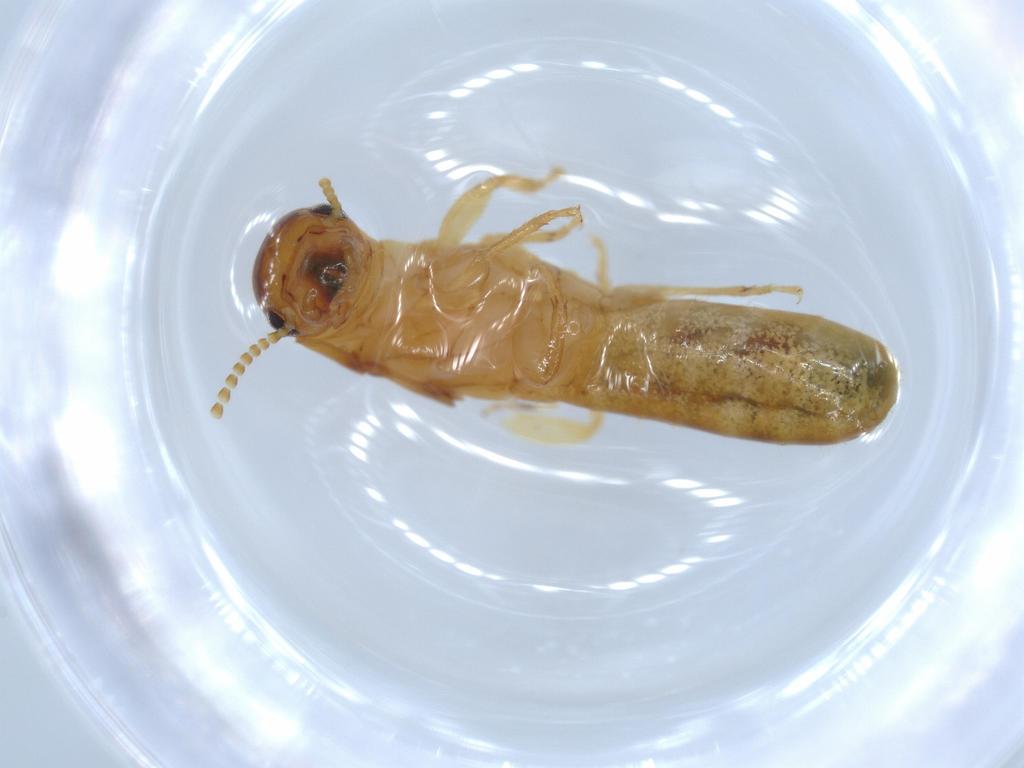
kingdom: Animalia
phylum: Arthropoda
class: Insecta
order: Blattodea
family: Kalotermitidae
